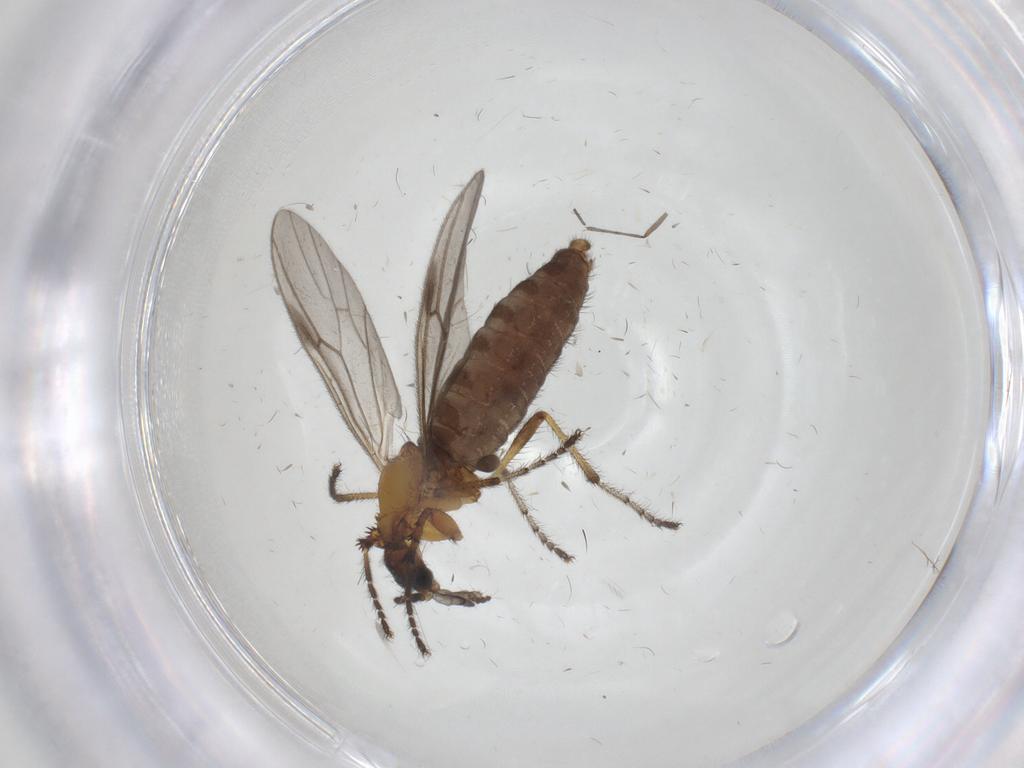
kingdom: Animalia
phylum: Arthropoda
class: Insecta
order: Diptera
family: Bibionidae
